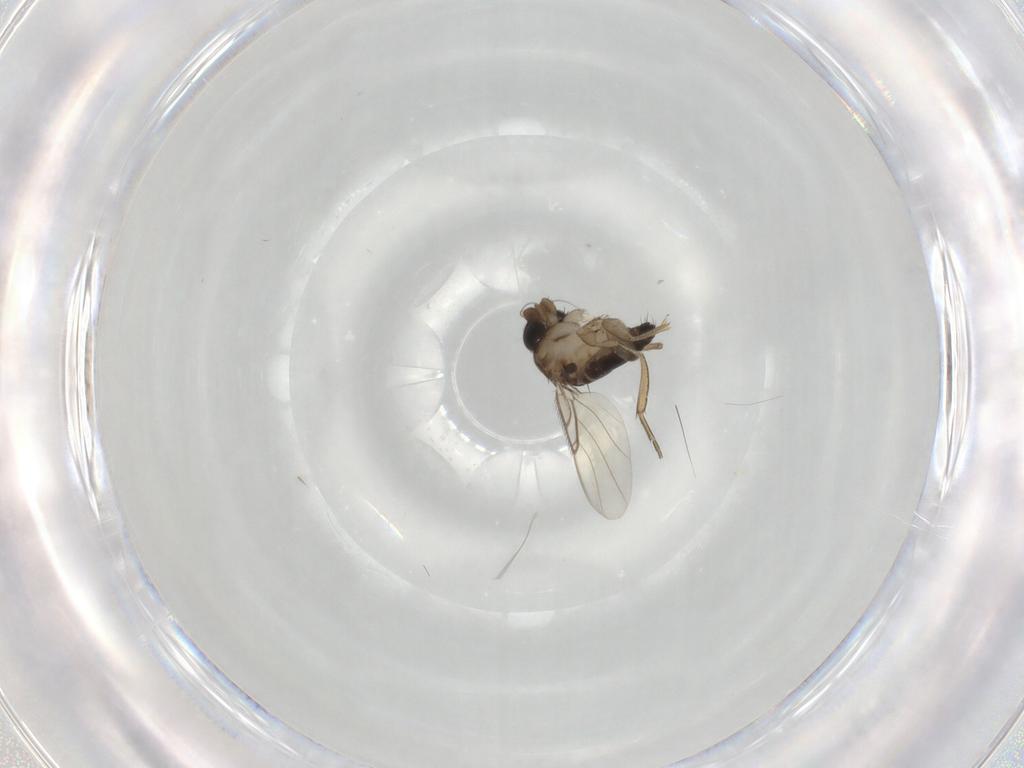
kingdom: Animalia
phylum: Arthropoda
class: Insecta
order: Diptera
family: Phoridae
